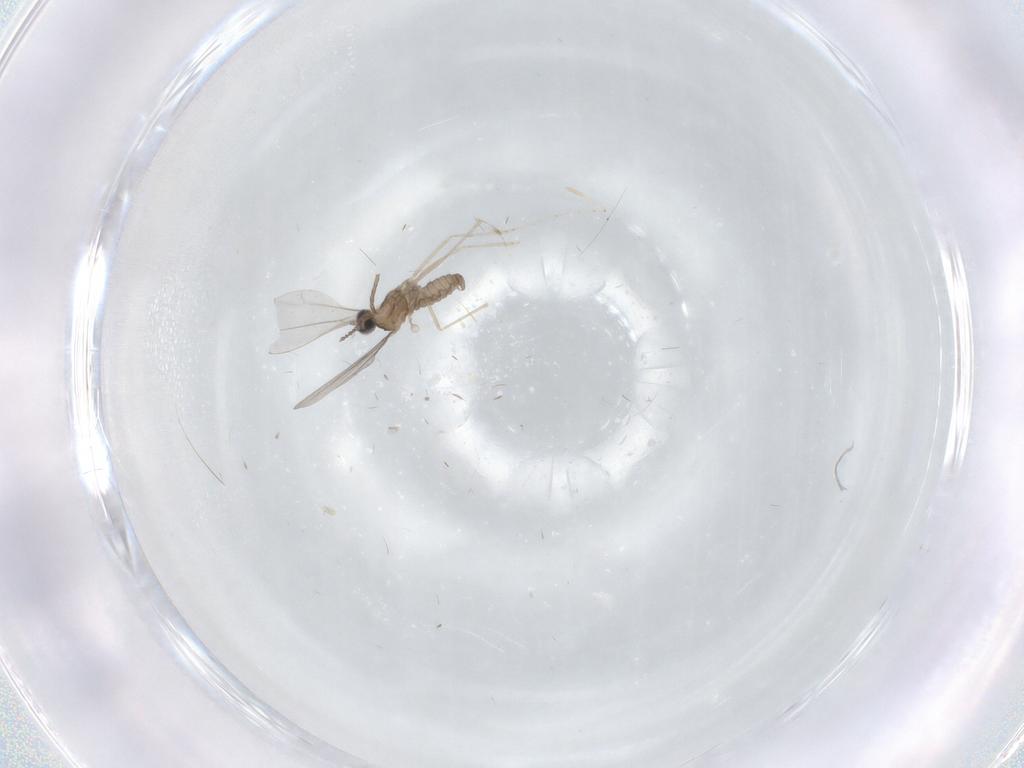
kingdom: Animalia
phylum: Arthropoda
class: Insecta
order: Diptera
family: Cecidomyiidae
